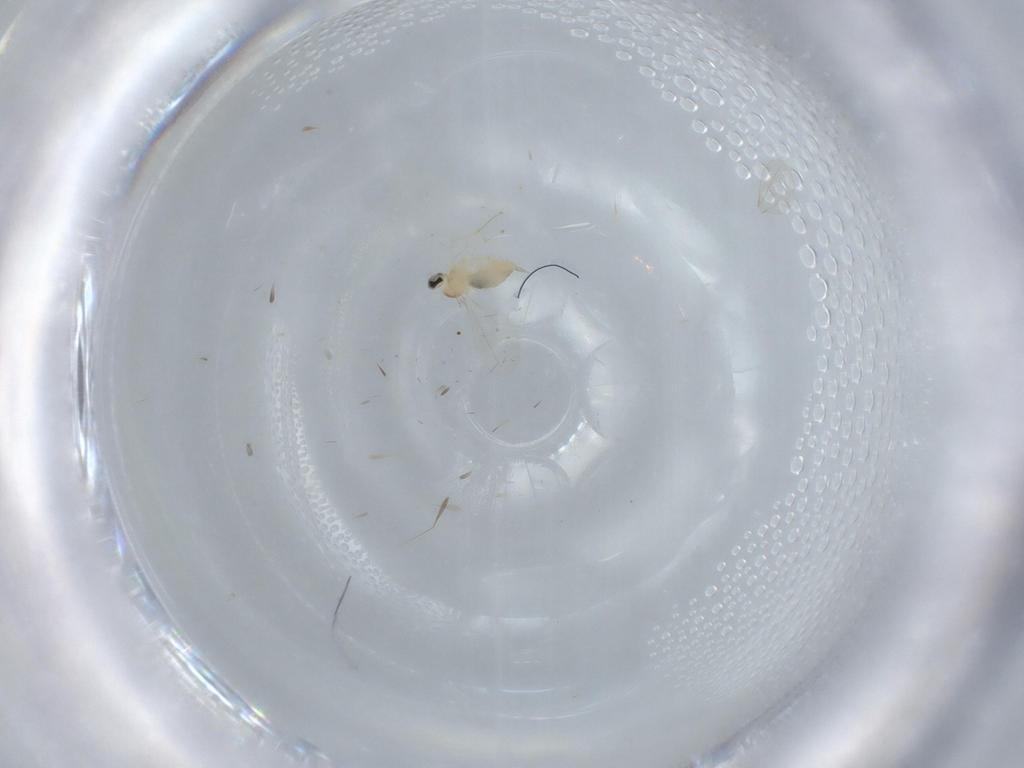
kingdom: Animalia
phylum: Arthropoda
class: Insecta
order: Diptera
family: Cecidomyiidae
